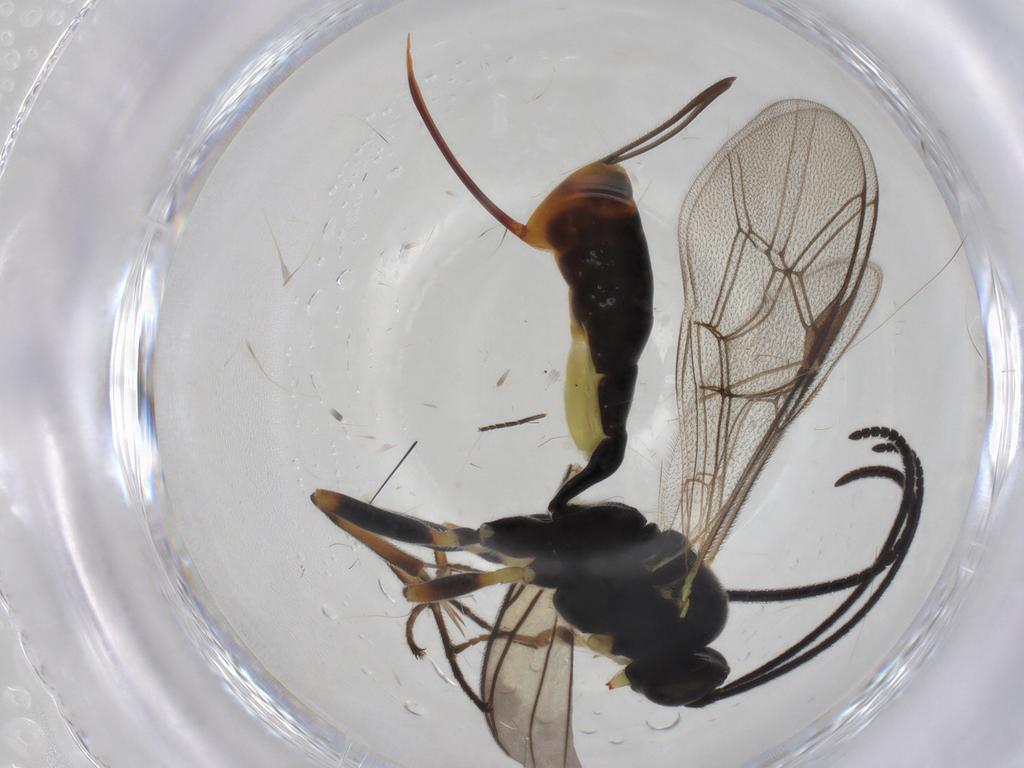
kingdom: Animalia
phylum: Arthropoda
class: Insecta
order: Hymenoptera
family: Ichneumonidae
